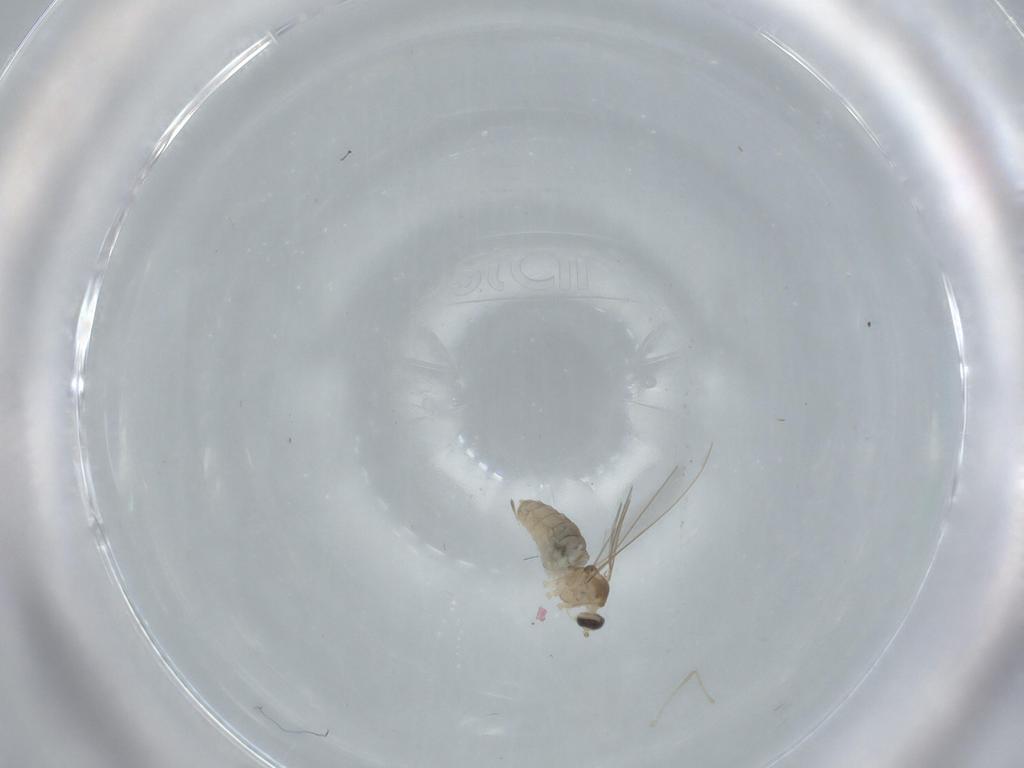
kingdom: Animalia
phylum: Arthropoda
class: Insecta
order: Diptera
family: Cecidomyiidae
